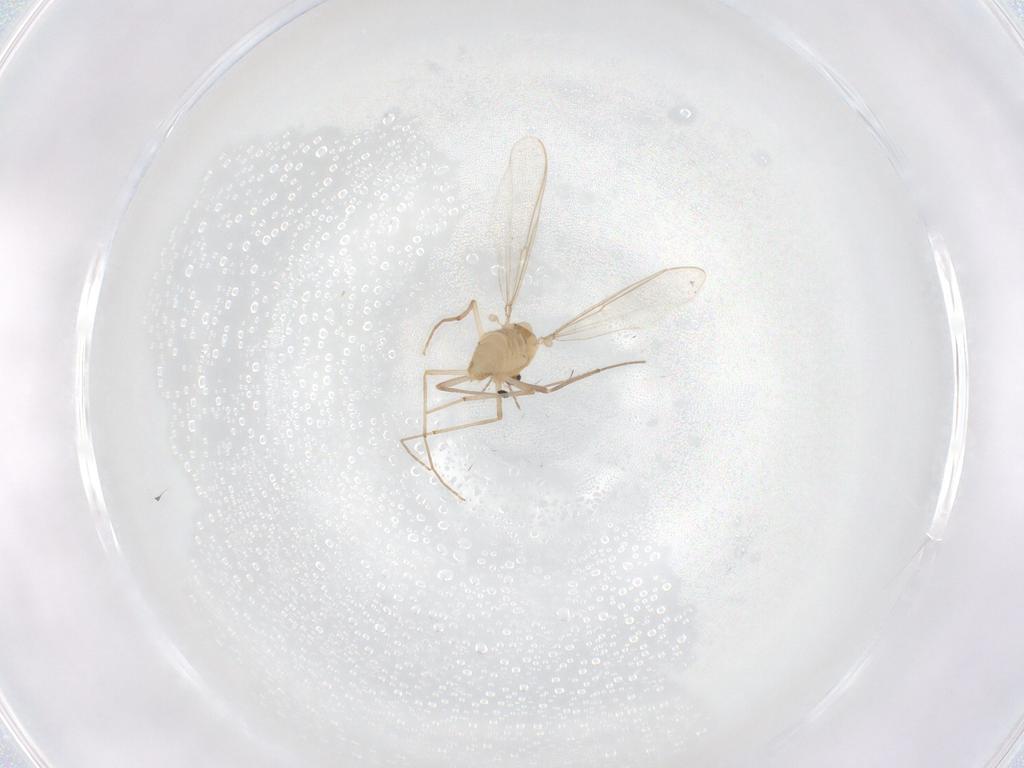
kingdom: Animalia
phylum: Arthropoda
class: Insecta
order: Diptera
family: Chironomidae
